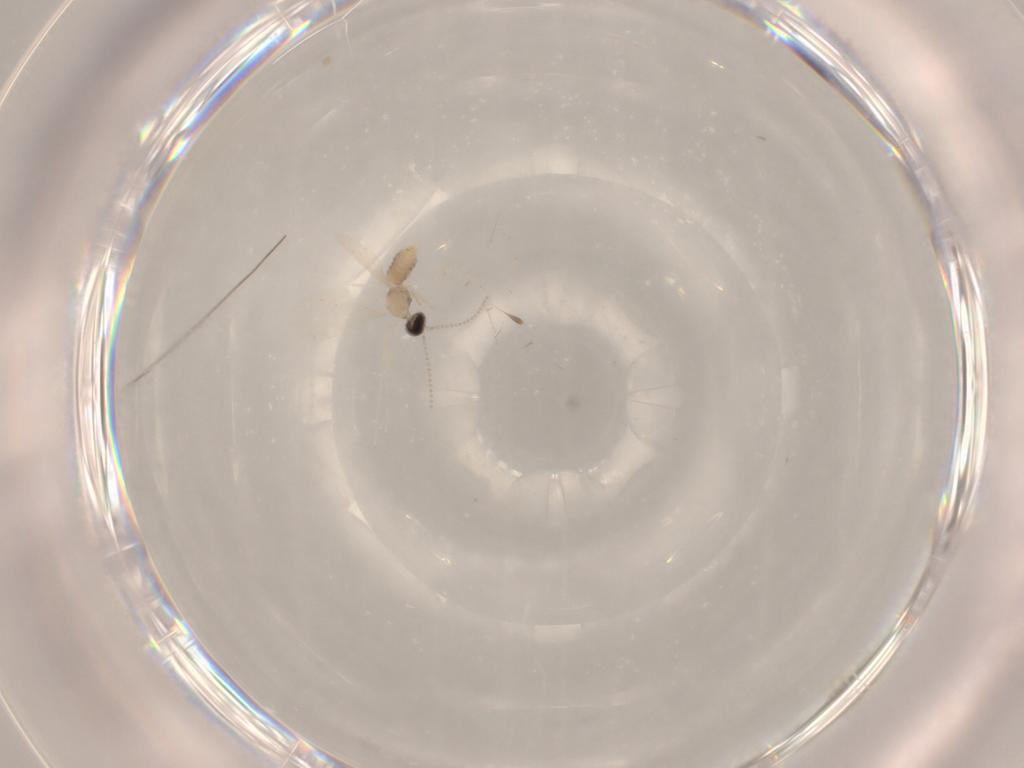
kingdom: Animalia
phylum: Arthropoda
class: Insecta
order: Diptera
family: Cecidomyiidae
